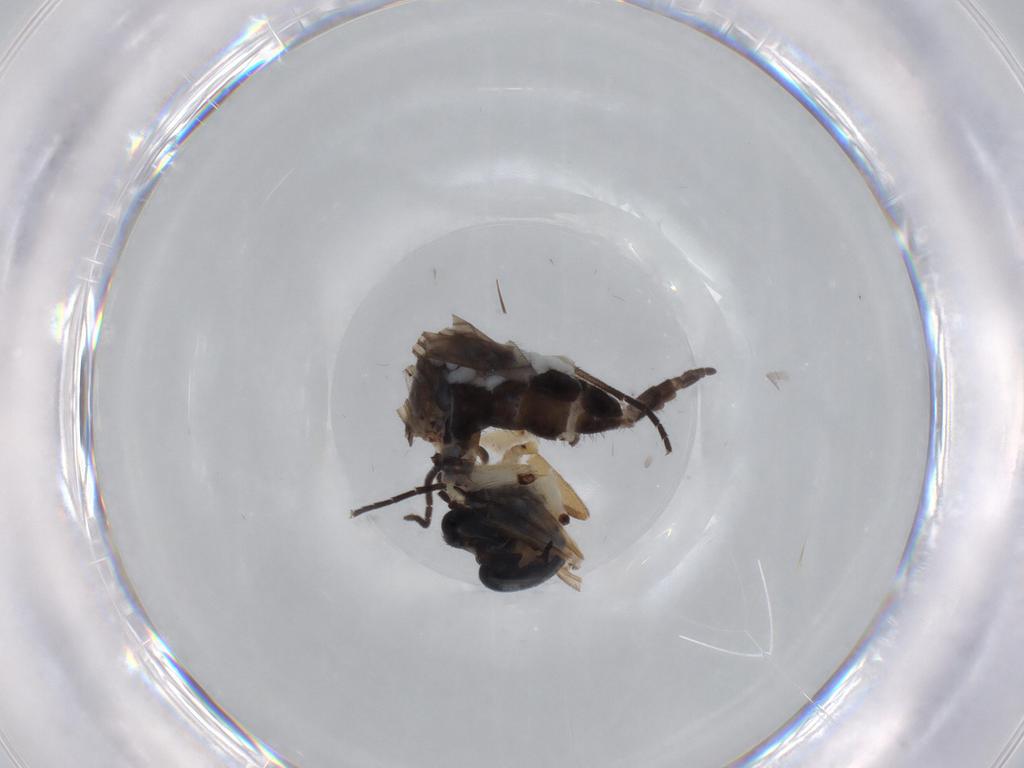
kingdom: Animalia
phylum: Arthropoda
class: Insecta
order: Diptera
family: Sciaridae
